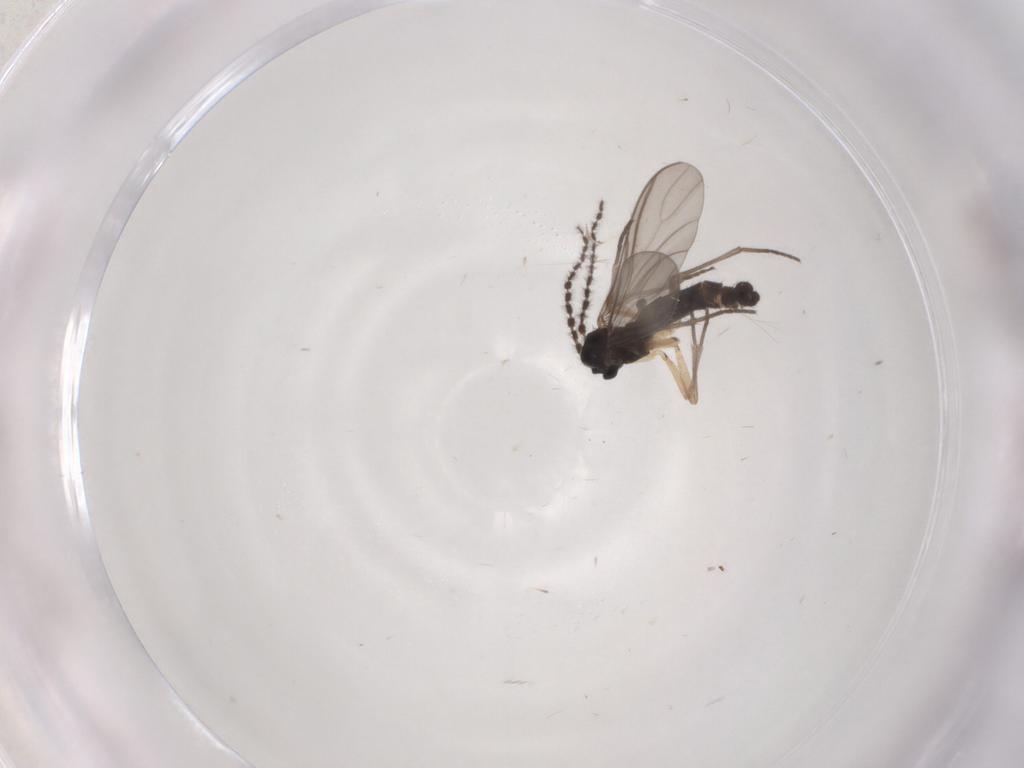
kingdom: Animalia
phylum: Arthropoda
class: Insecta
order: Diptera
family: Sciaridae
